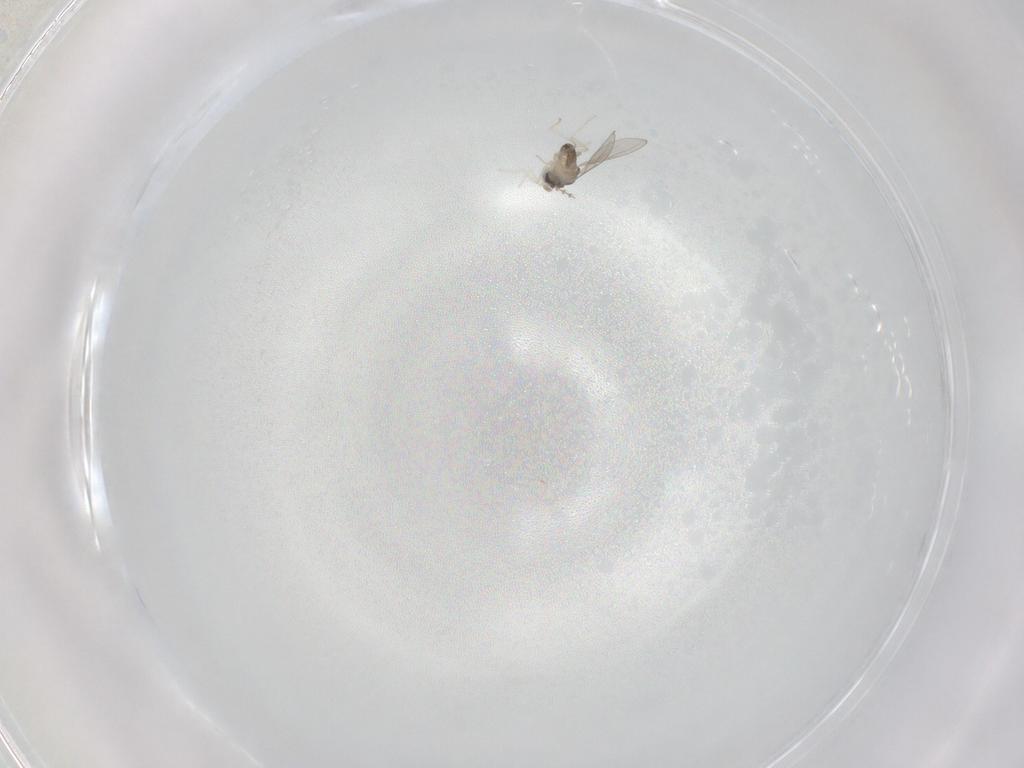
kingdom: Animalia
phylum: Arthropoda
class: Insecta
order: Diptera
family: Cecidomyiidae
